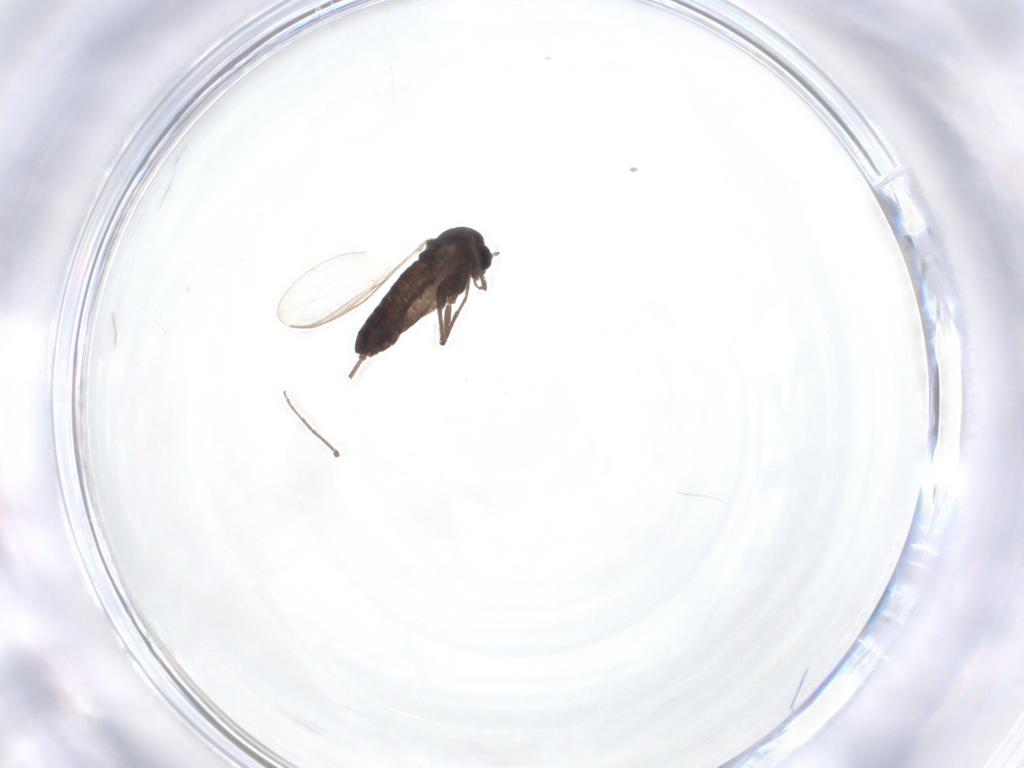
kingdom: Animalia
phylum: Arthropoda
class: Insecta
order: Diptera
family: Chironomidae
